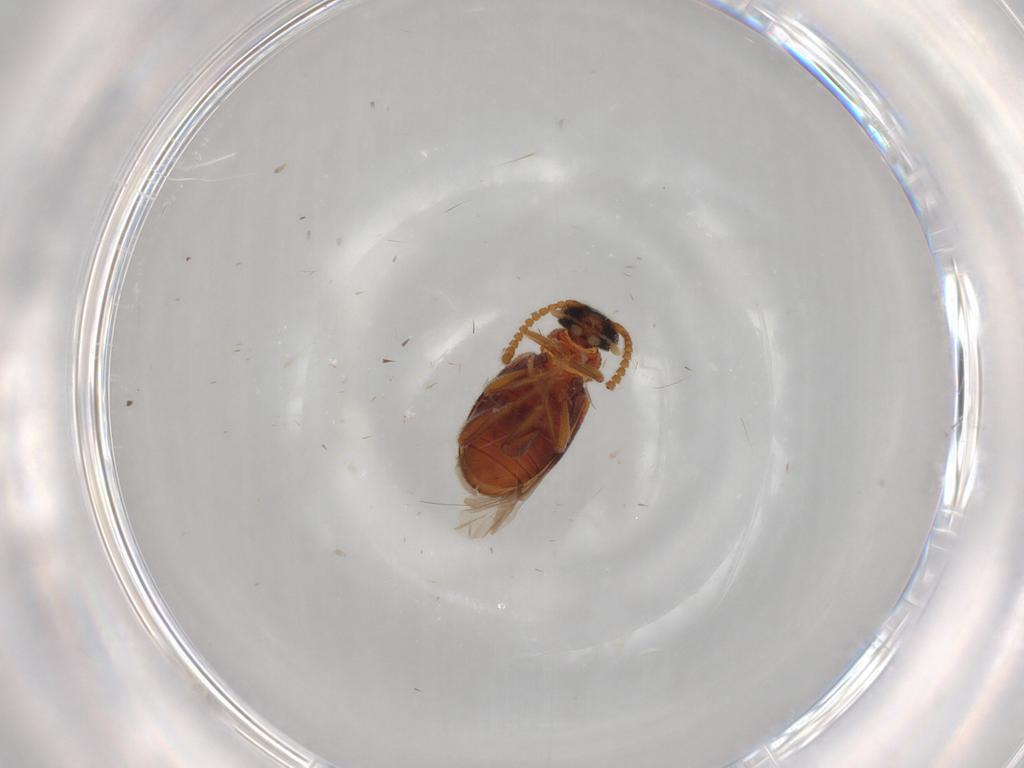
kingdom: Animalia
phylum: Arthropoda
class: Insecta
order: Coleoptera
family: Aderidae
